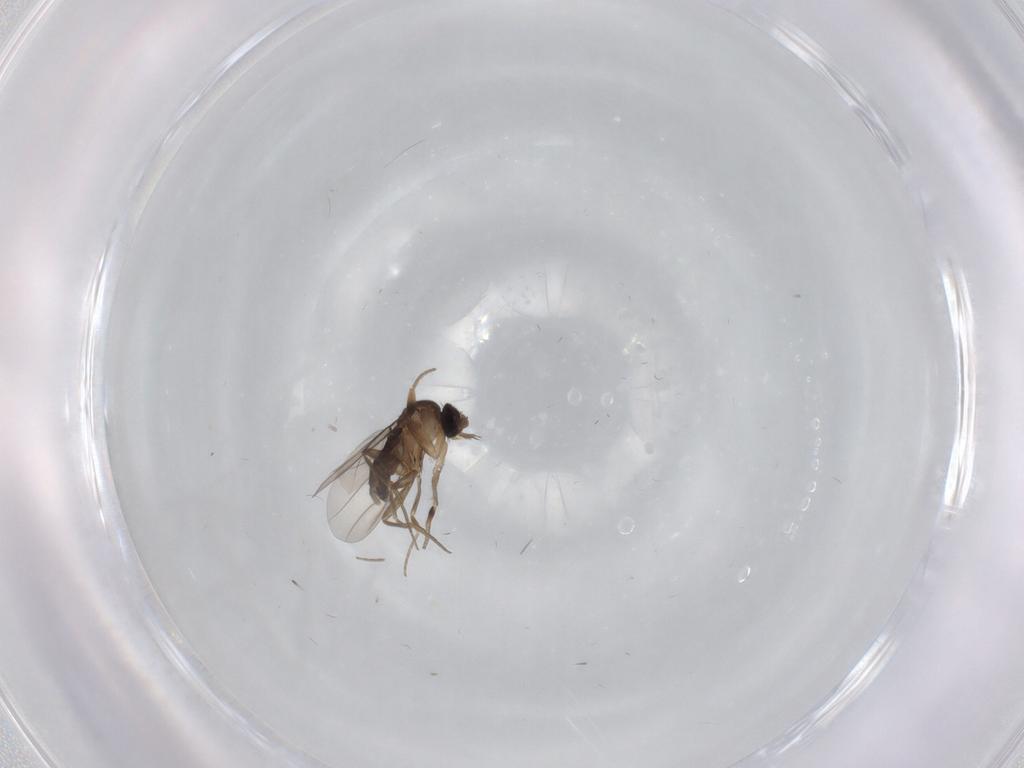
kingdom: Animalia
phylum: Arthropoda
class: Insecta
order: Diptera
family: Phoridae
